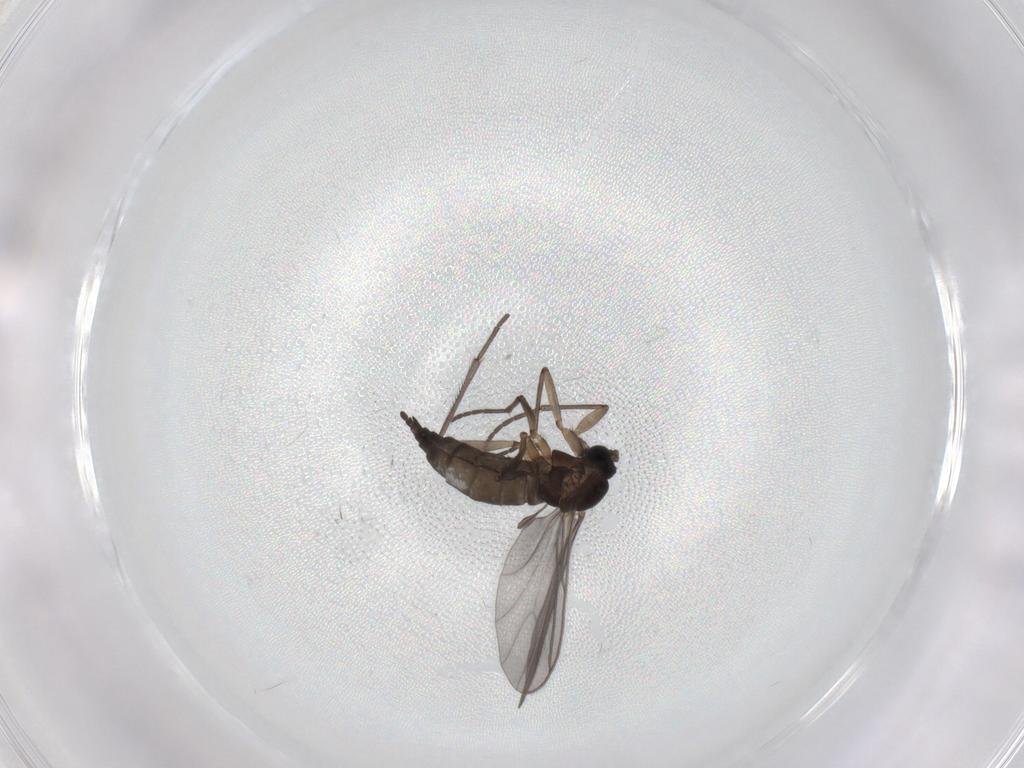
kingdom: Animalia
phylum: Arthropoda
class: Insecta
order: Diptera
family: Sciaridae
